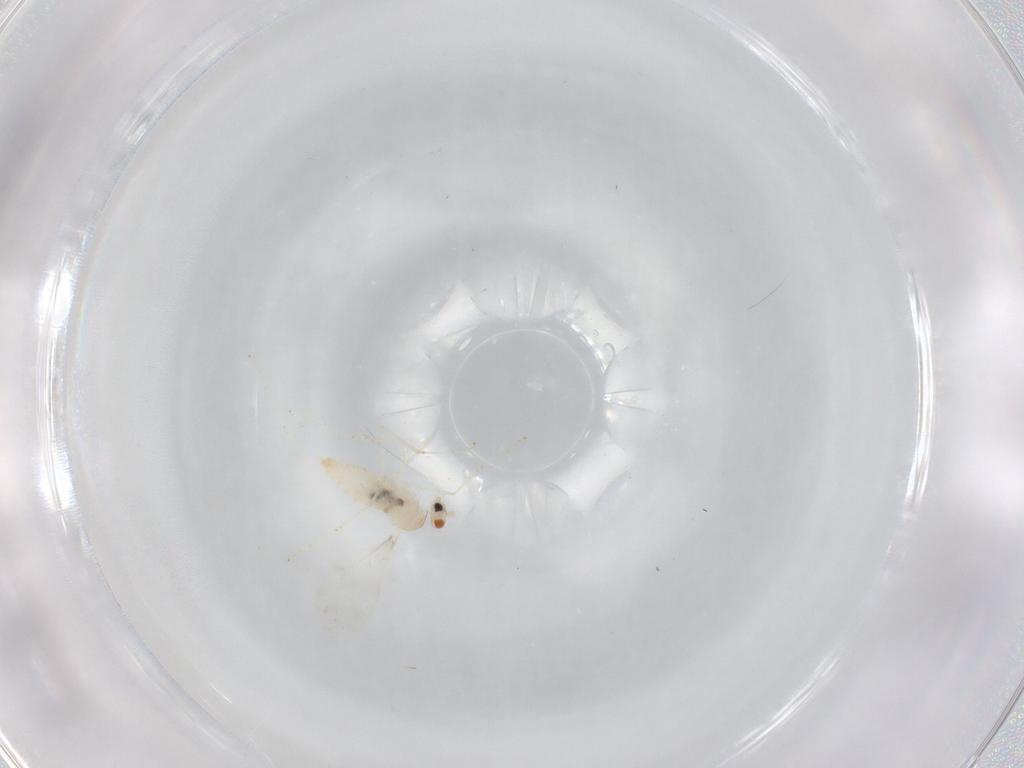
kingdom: Animalia
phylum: Arthropoda
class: Insecta
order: Diptera
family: Cecidomyiidae
